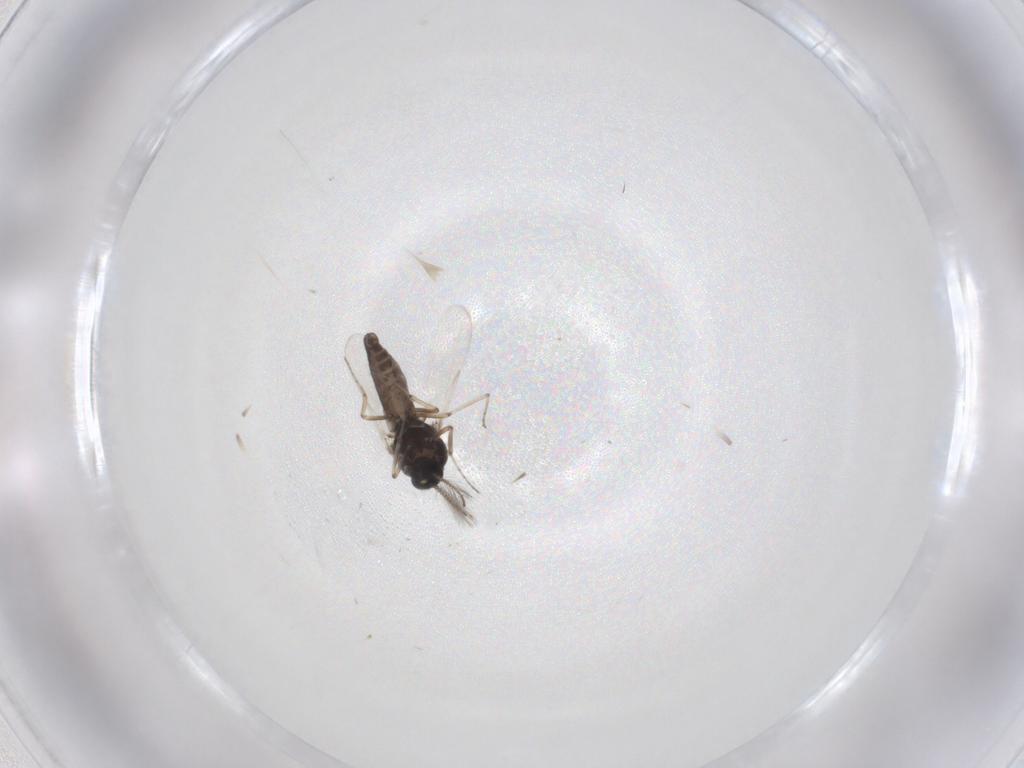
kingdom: Animalia
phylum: Arthropoda
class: Insecta
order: Diptera
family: Ceratopogonidae
